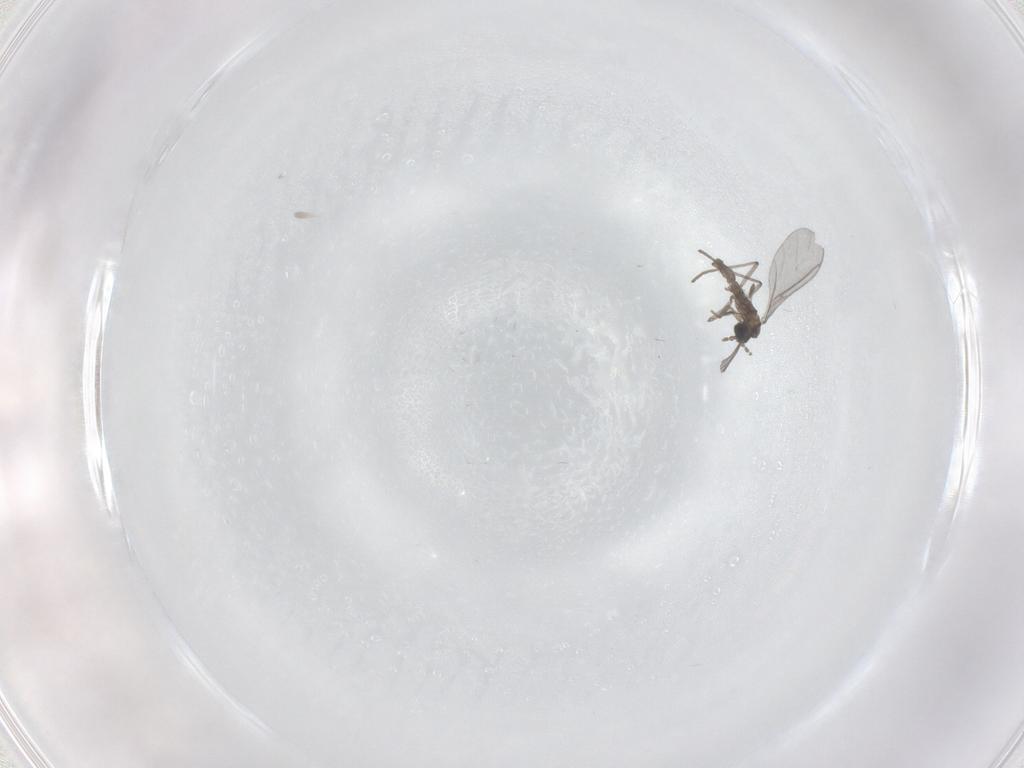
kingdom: Animalia
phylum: Arthropoda
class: Insecta
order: Diptera
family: Sciaridae
